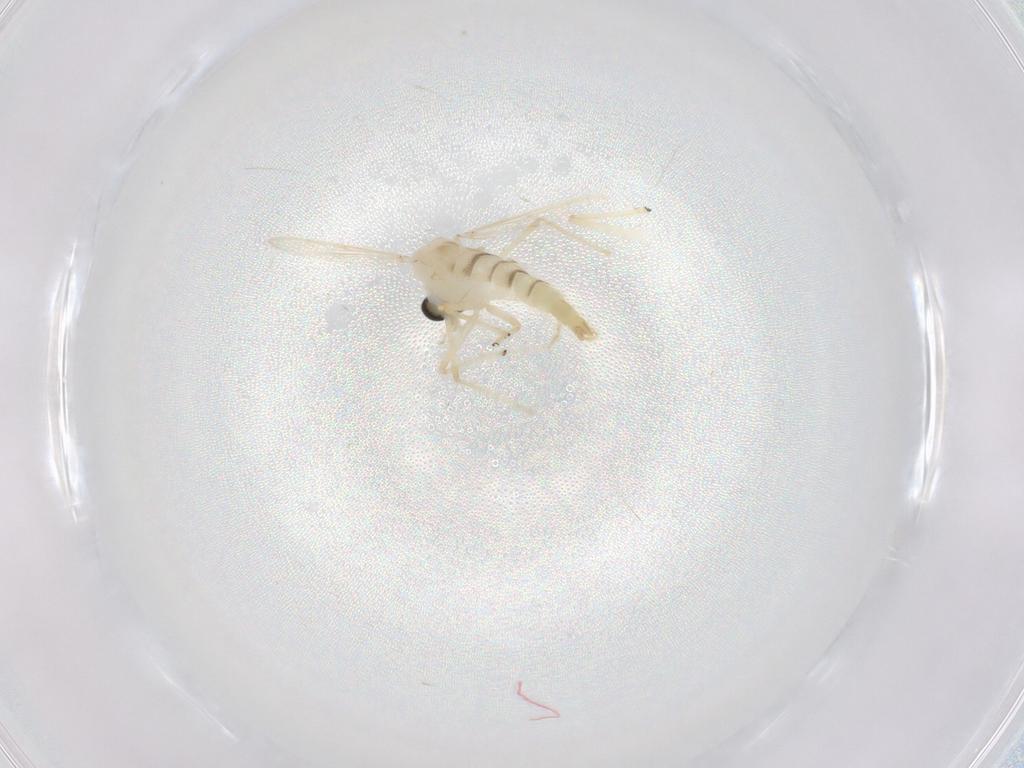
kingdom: Animalia
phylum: Arthropoda
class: Insecta
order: Diptera
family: Chironomidae
